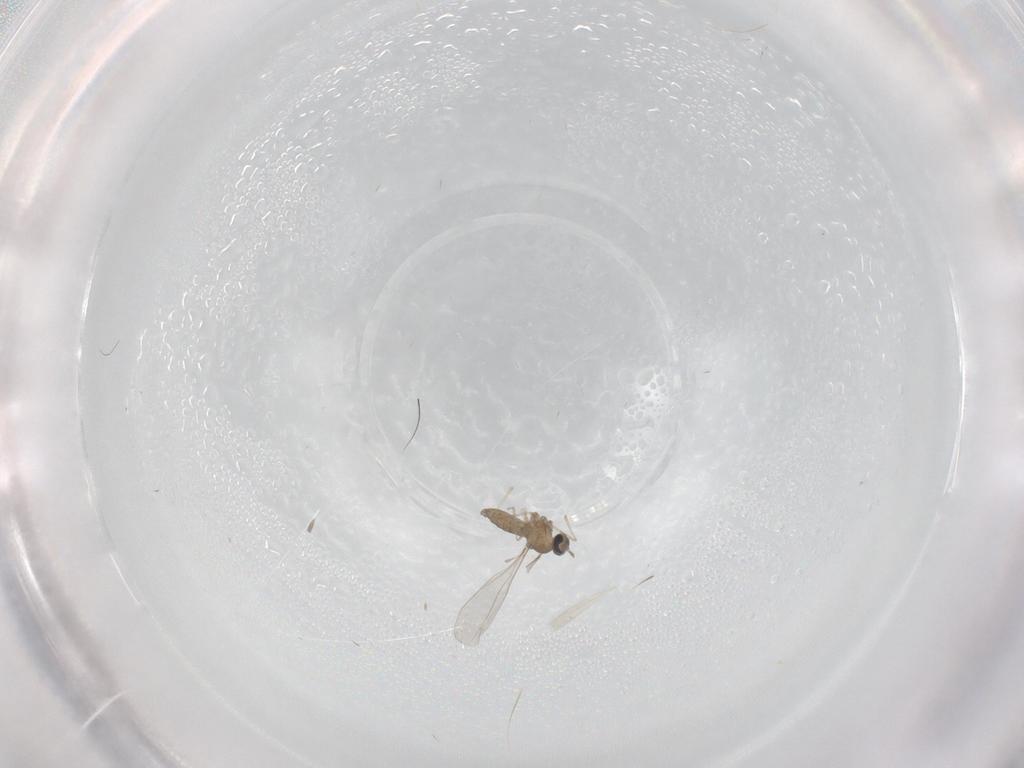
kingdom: Animalia
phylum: Arthropoda
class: Insecta
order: Diptera
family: Cecidomyiidae
